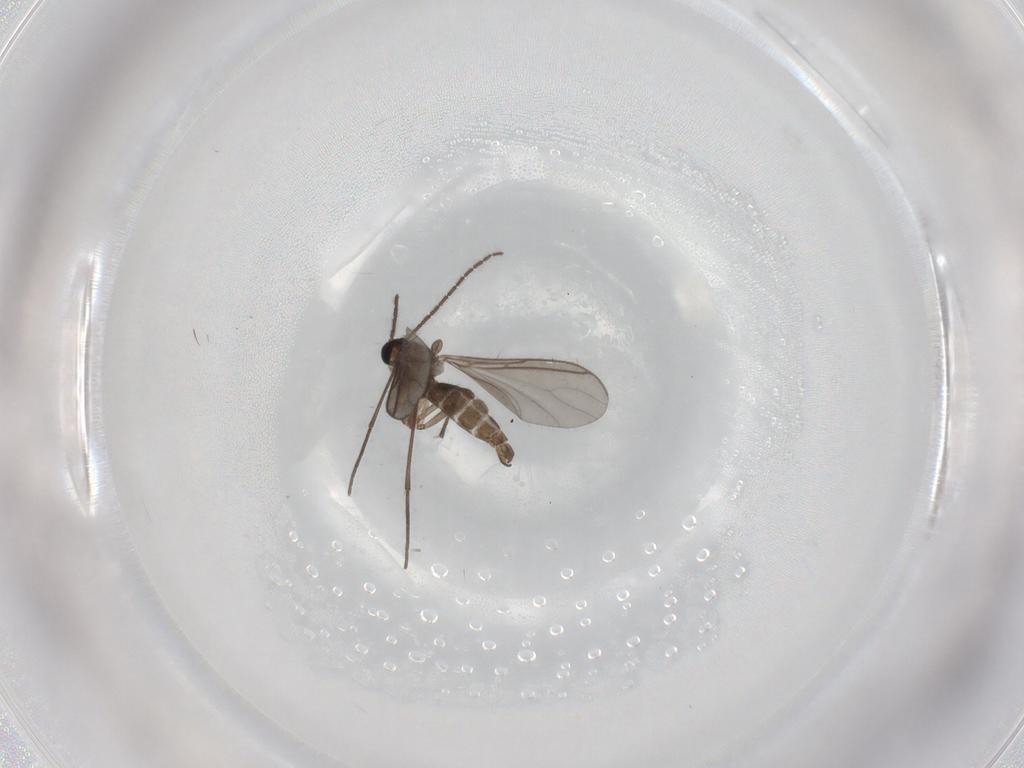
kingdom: Animalia
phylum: Arthropoda
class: Insecta
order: Diptera
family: Sciaridae
